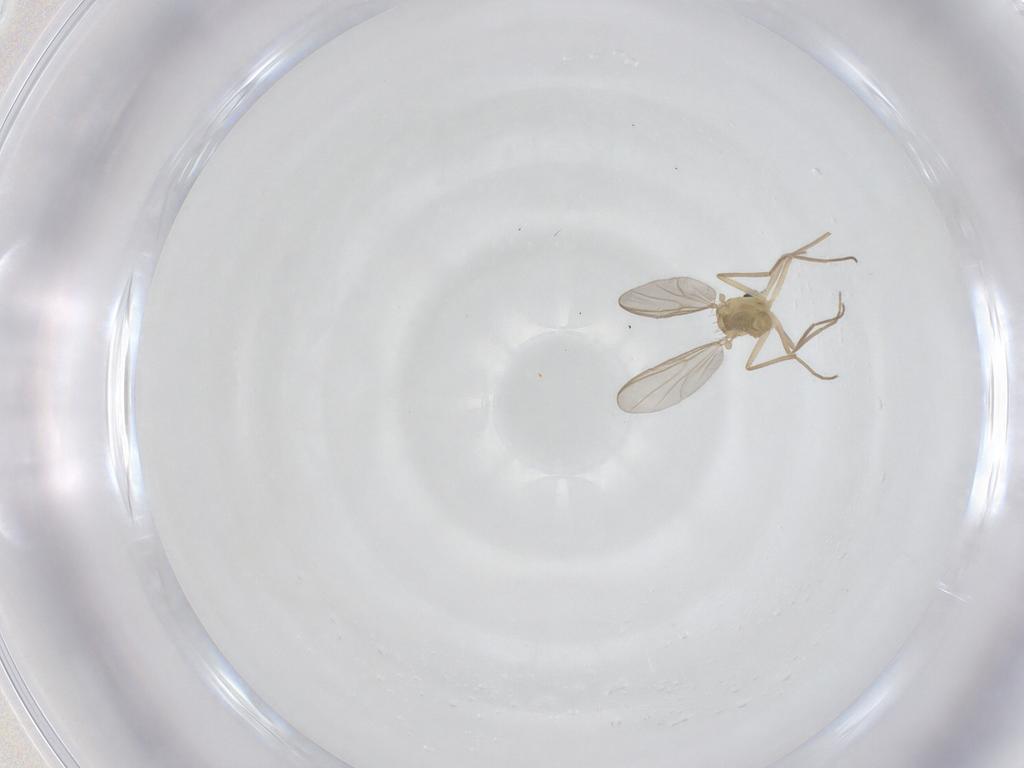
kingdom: Animalia
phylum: Arthropoda
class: Insecta
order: Diptera
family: Chironomidae
